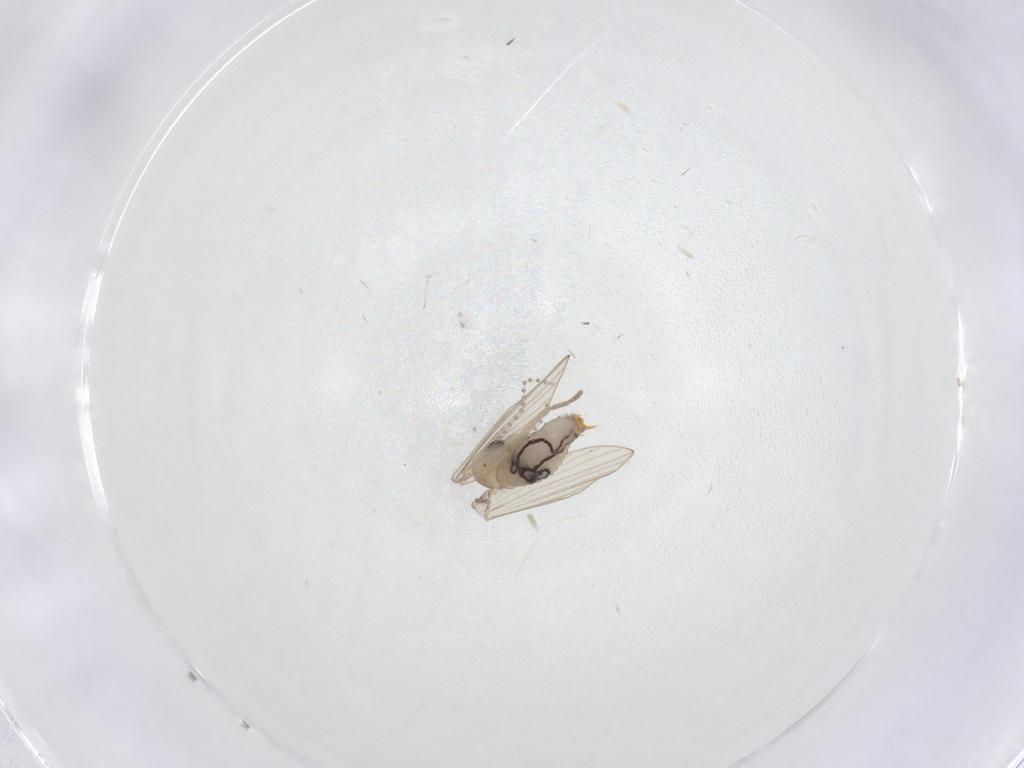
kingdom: Animalia
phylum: Arthropoda
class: Insecta
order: Diptera
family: Psychodidae
